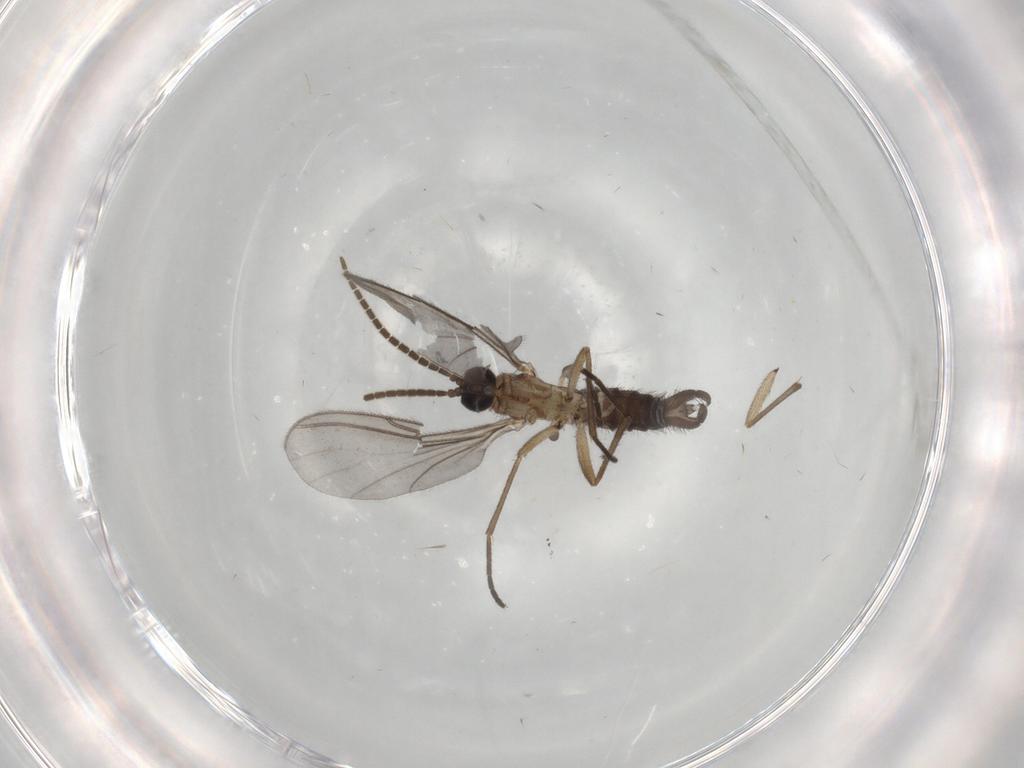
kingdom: Animalia
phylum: Arthropoda
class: Insecta
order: Diptera
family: Sciaridae
